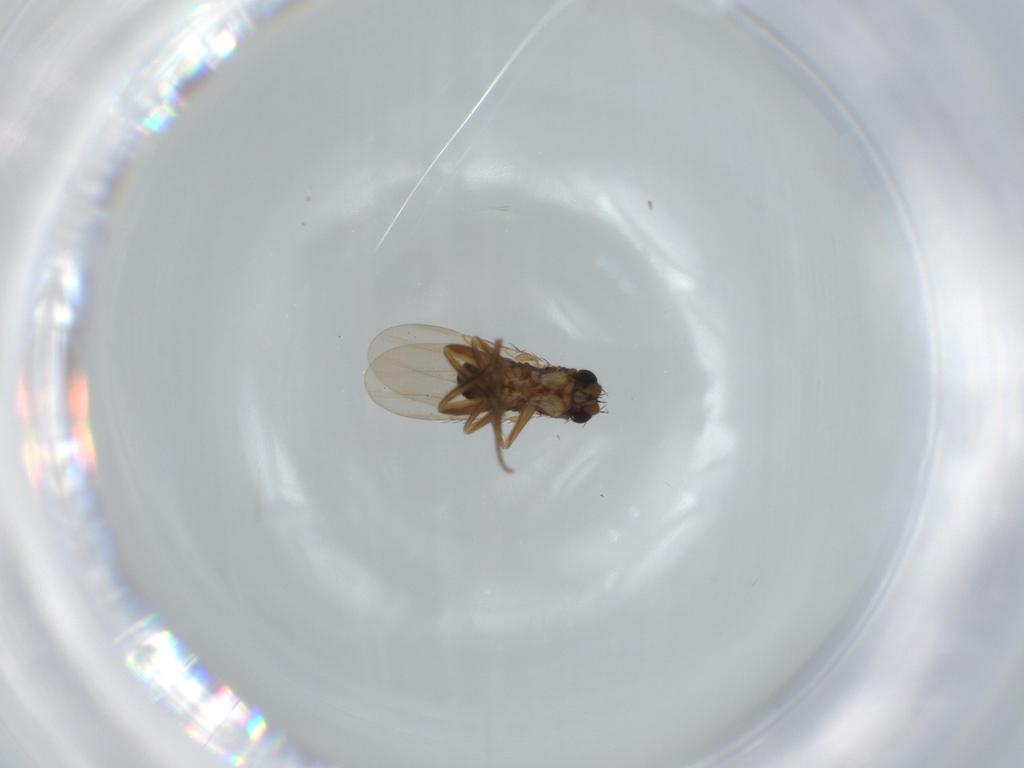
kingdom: Animalia
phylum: Arthropoda
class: Insecta
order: Diptera
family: Phoridae
